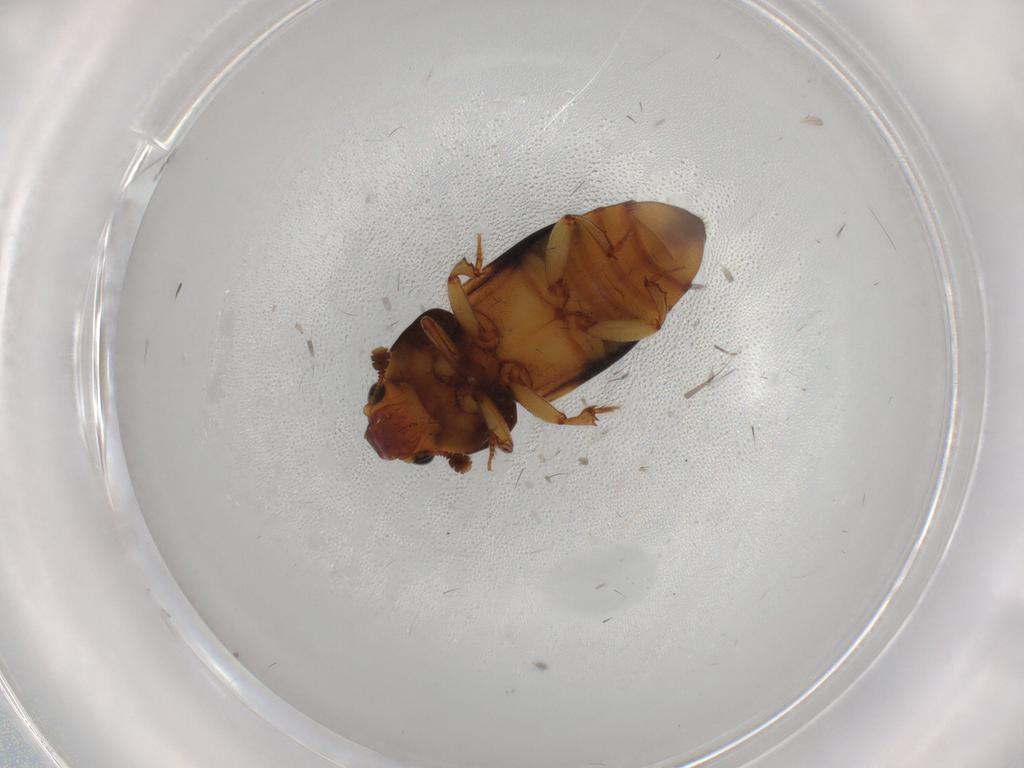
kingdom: Animalia
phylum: Arthropoda
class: Insecta
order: Coleoptera
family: Nitidulidae
